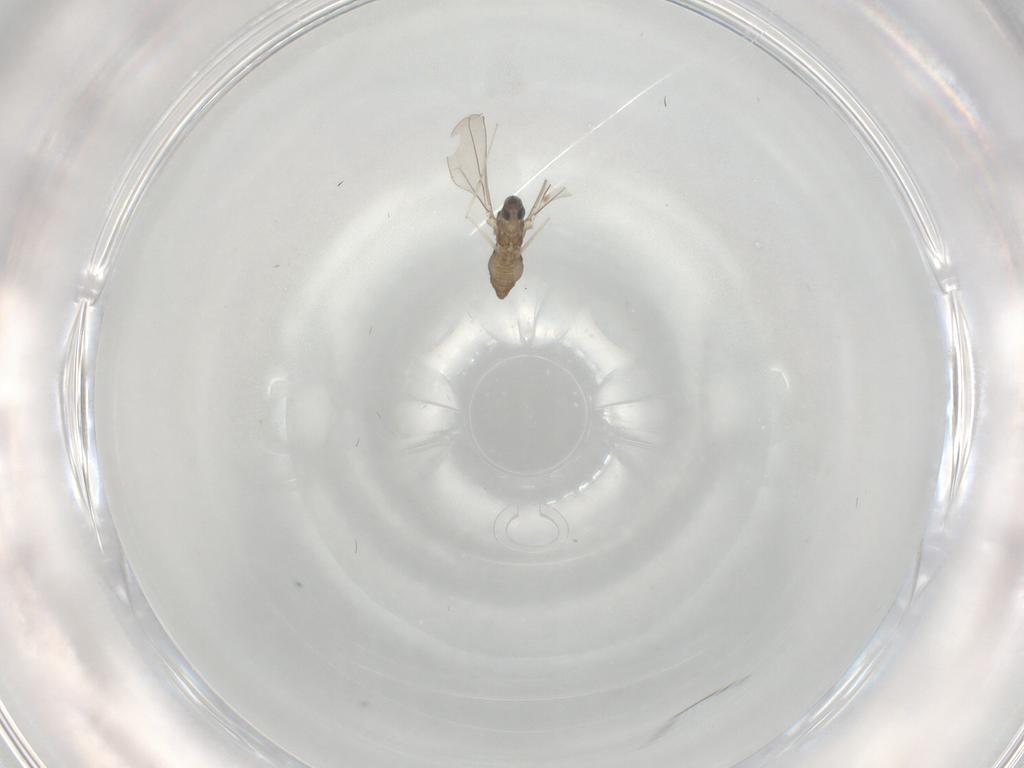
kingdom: Animalia
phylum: Arthropoda
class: Insecta
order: Diptera
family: Cecidomyiidae
